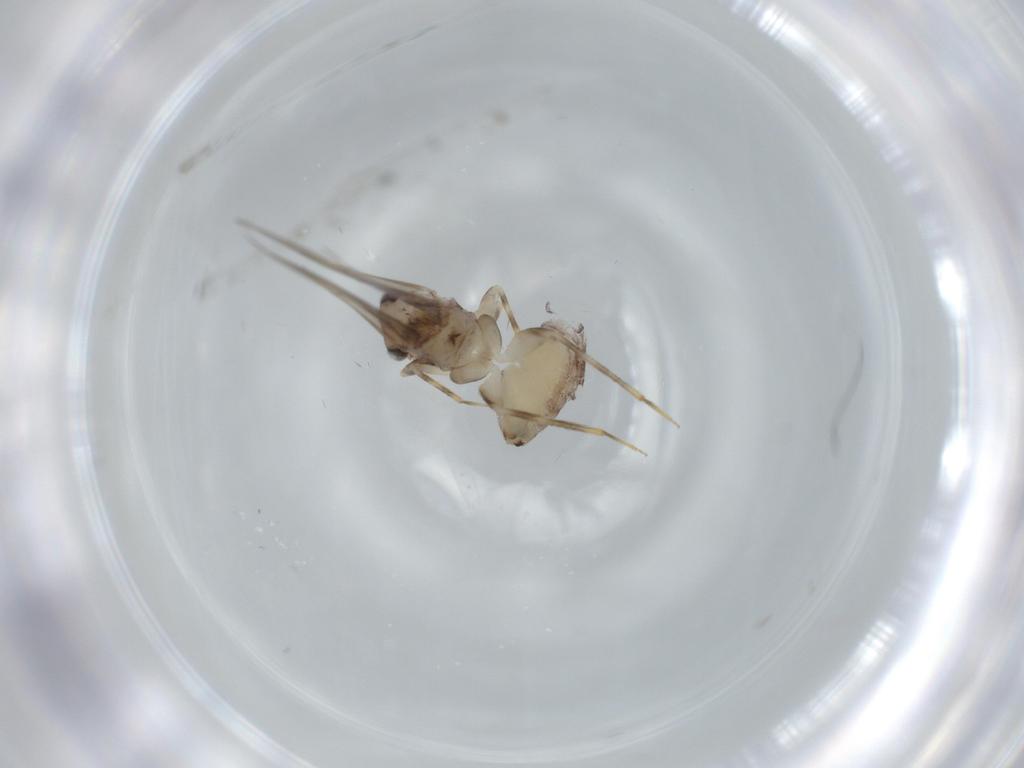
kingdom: Animalia
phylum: Arthropoda
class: Insecta
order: Psocodea
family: Lepidopsocidae
